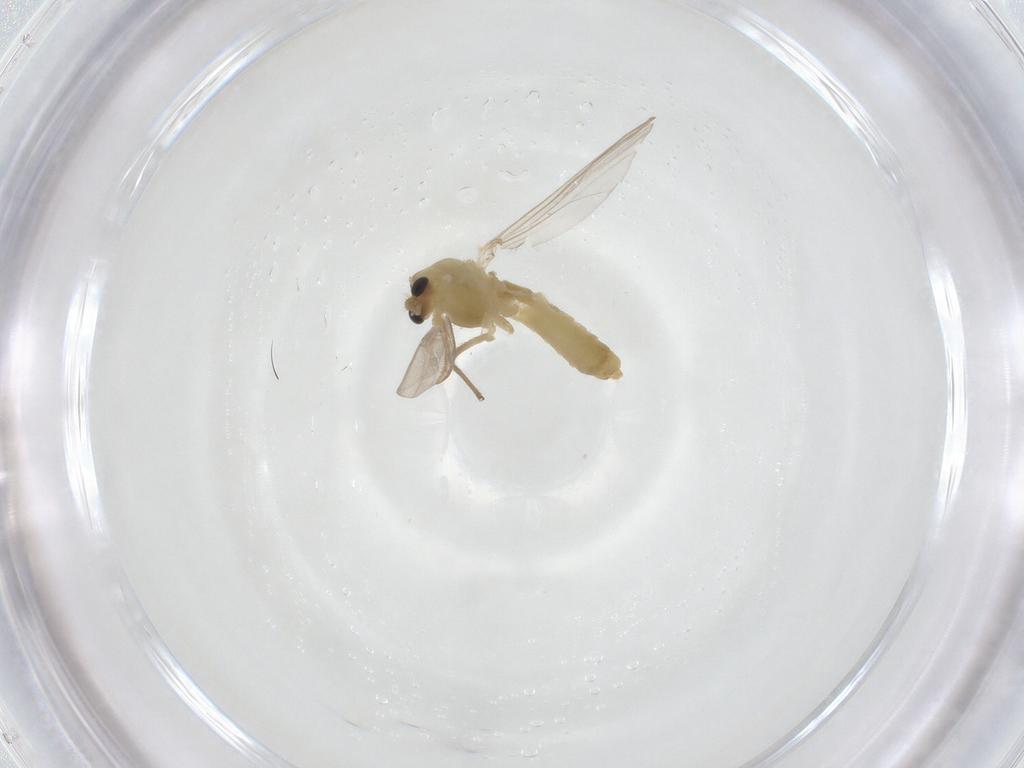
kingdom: Animalia
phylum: Arthropoda
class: Insecta
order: Diptera
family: Chironomidae
